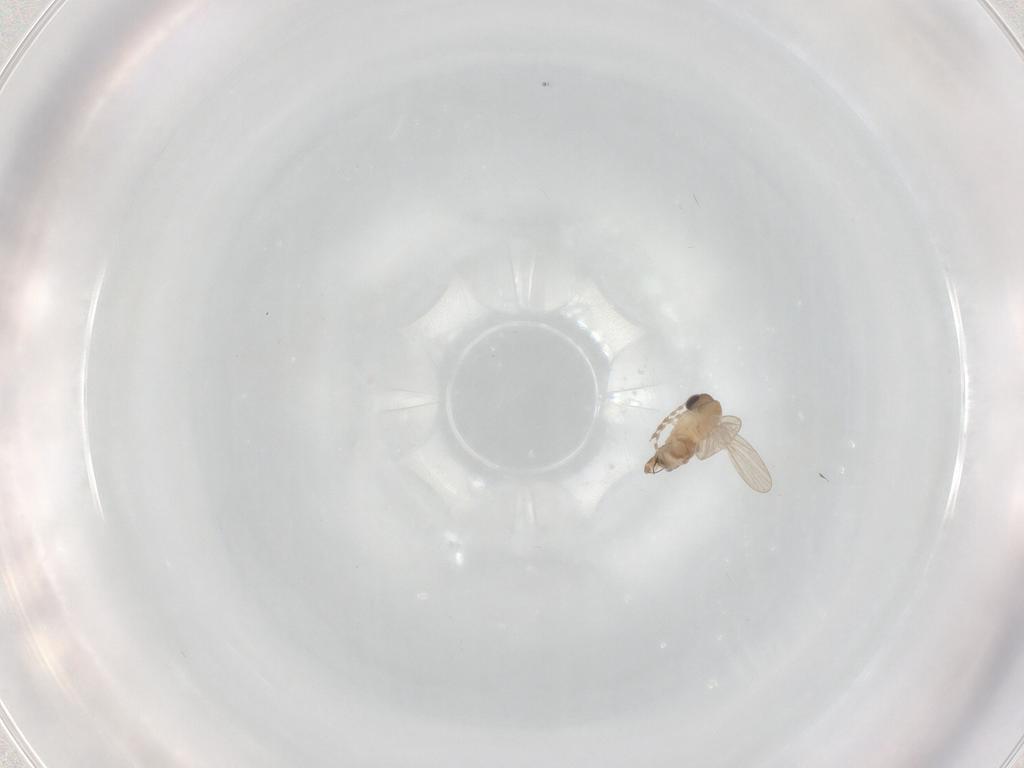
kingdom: Animalia
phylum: Arthropoda
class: Insecta
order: Diptera
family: Psychodidae
